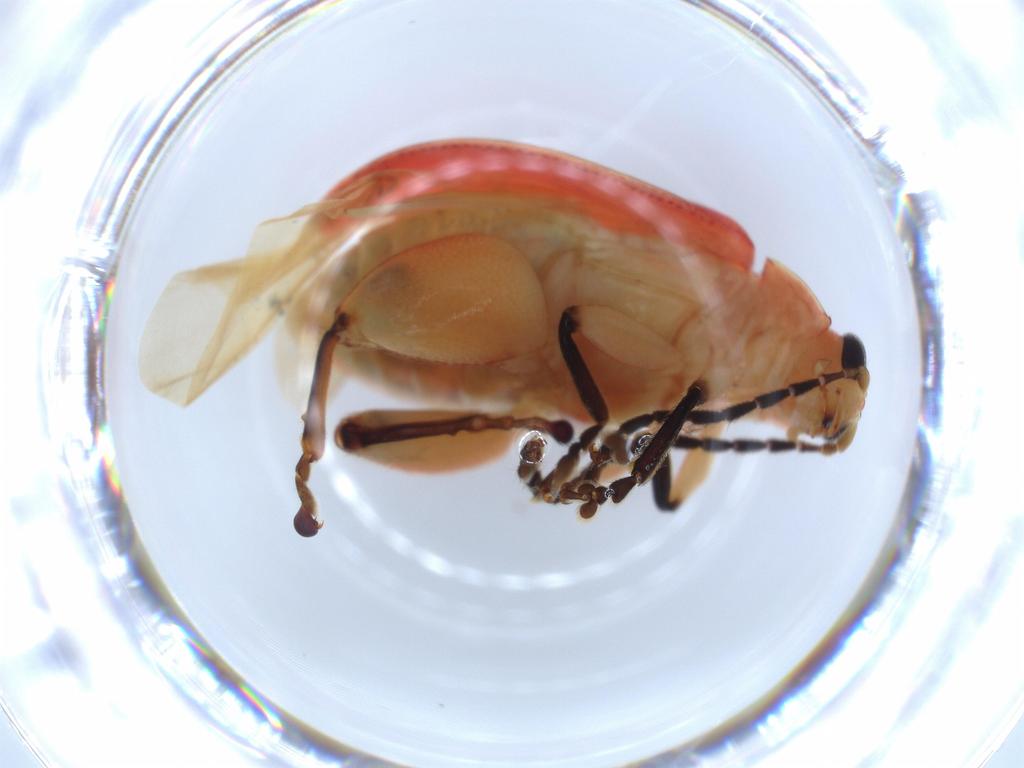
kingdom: Animalia
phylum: Arthropoda
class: Insecta
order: Coleoptera
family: Chrysomelidae
